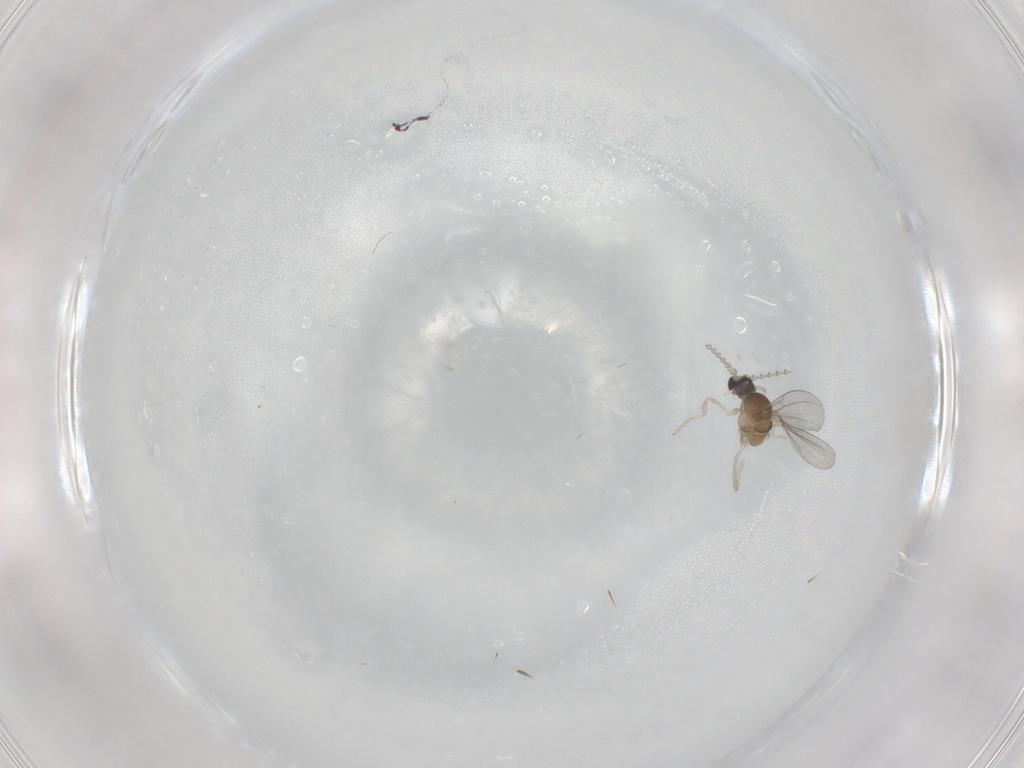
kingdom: Animalia
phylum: Arthropoda
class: Insecta
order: Diptera
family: Cecidomyiidae
